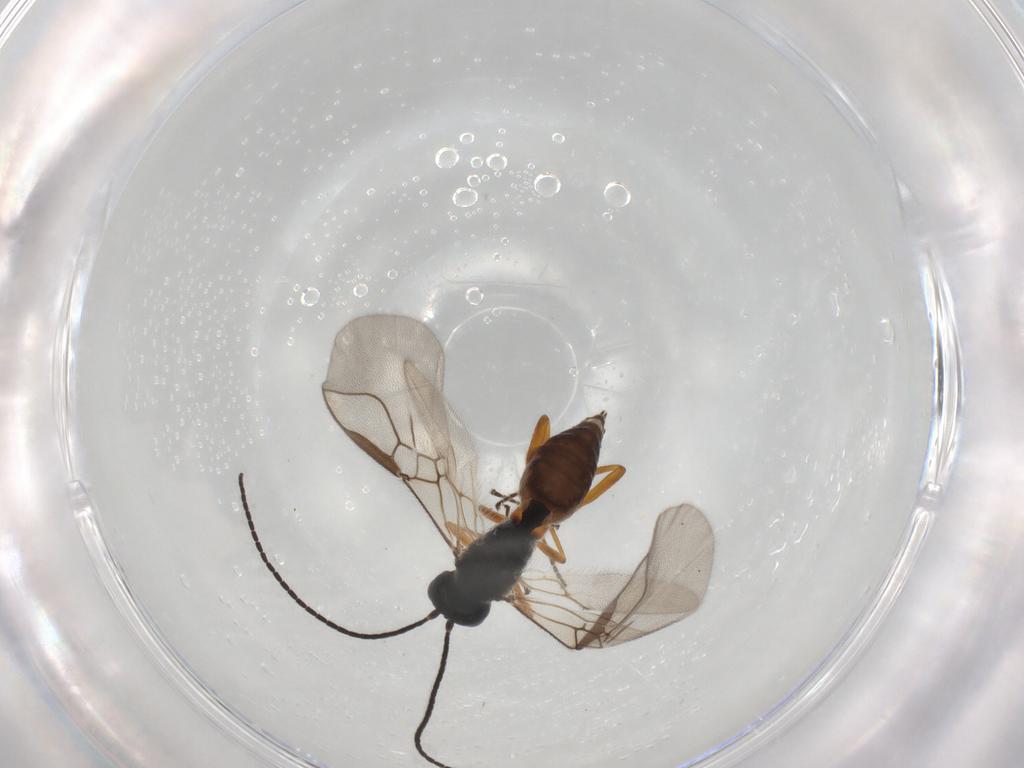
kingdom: Animalia
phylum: Arthropoda
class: Insecta
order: Hymenoptera
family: Braconidae
